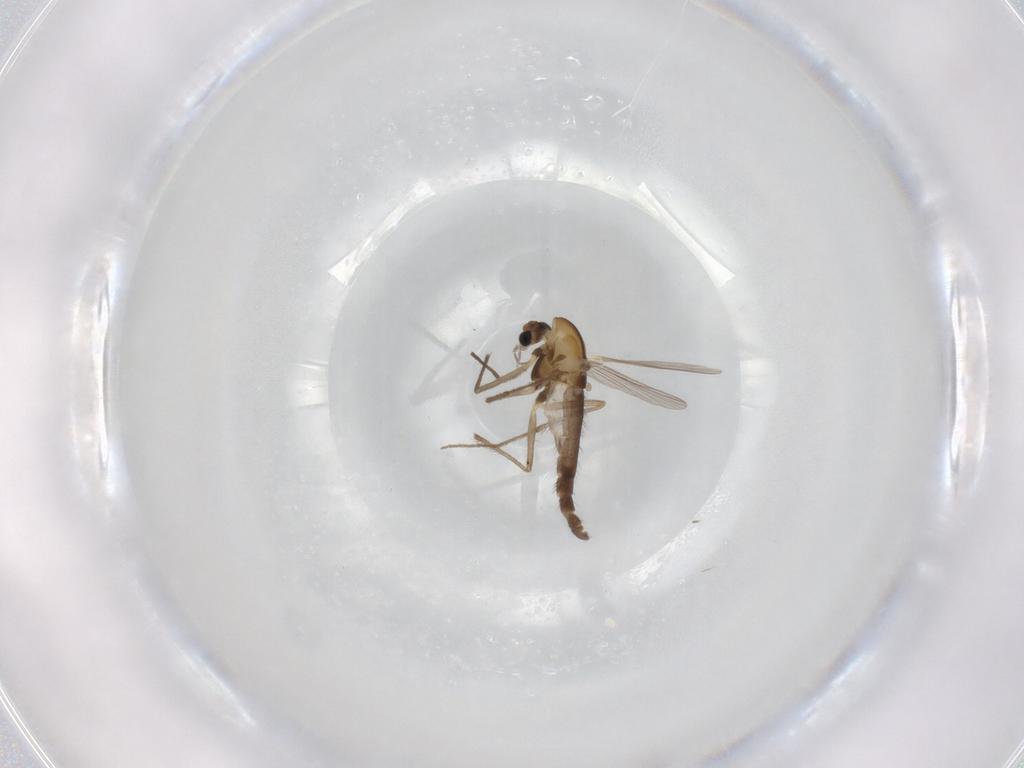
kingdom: Animalia
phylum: Arthropoda
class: Insecta
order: Diptera
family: Chironomidae
